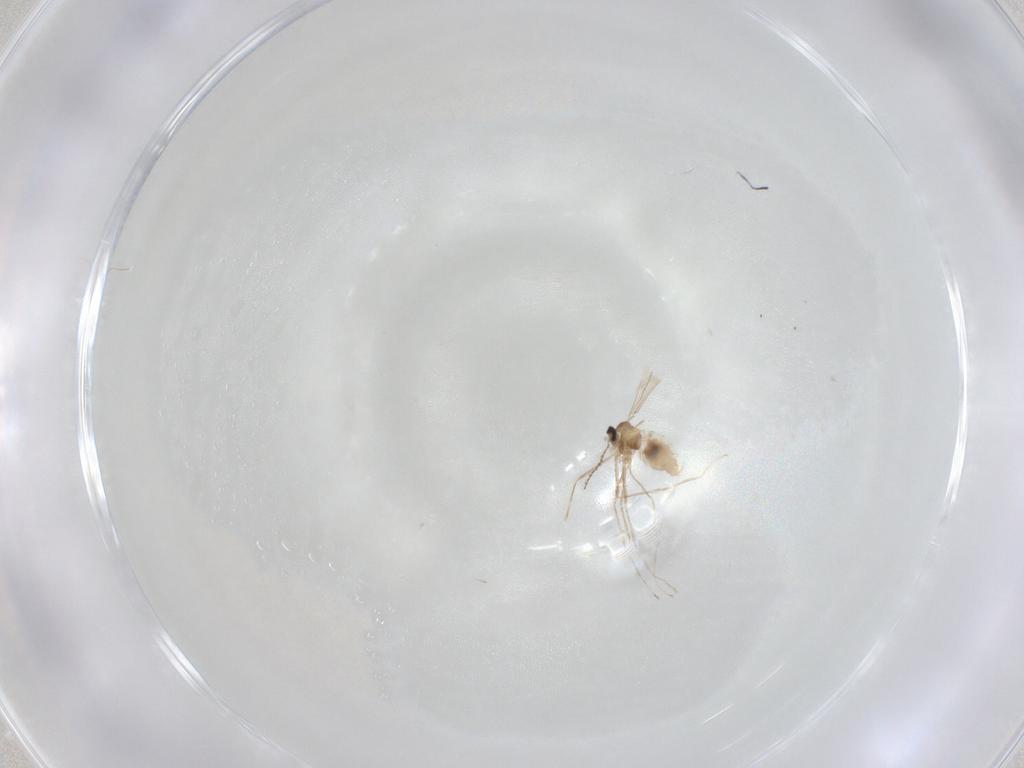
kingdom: Animalia
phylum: Arthropoda
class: Insecta
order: Diptera
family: Cecidomyiidae
